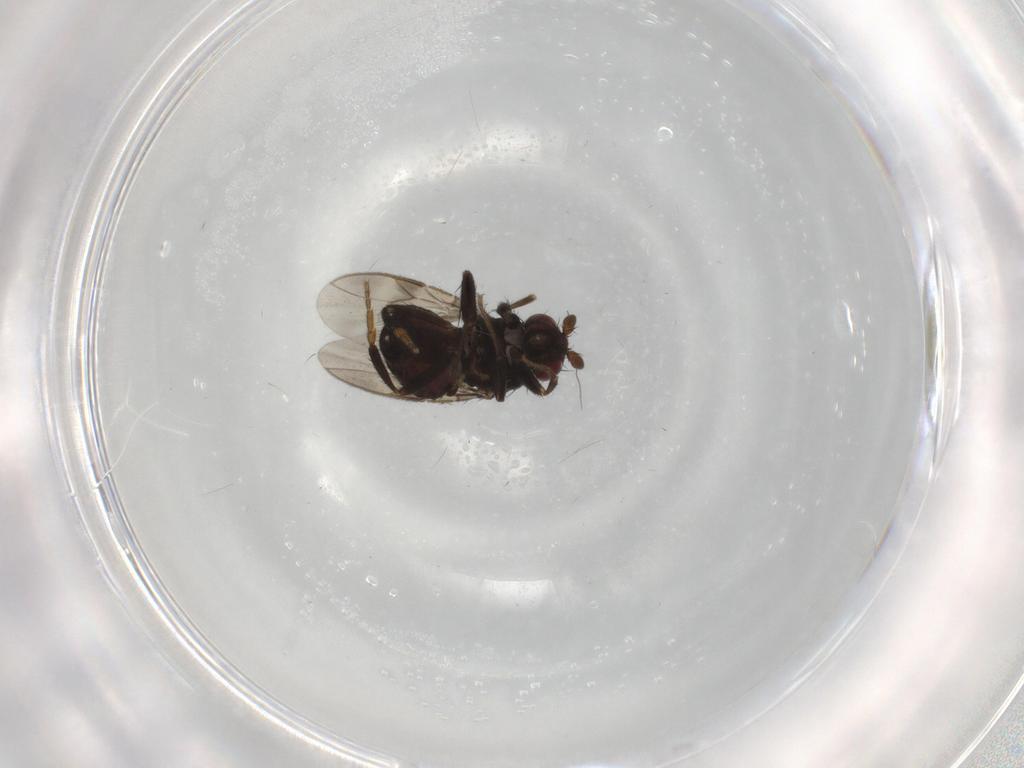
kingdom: Animalia
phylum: Arthropoda
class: Insecta
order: Diptera
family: Sphaeroceridae
